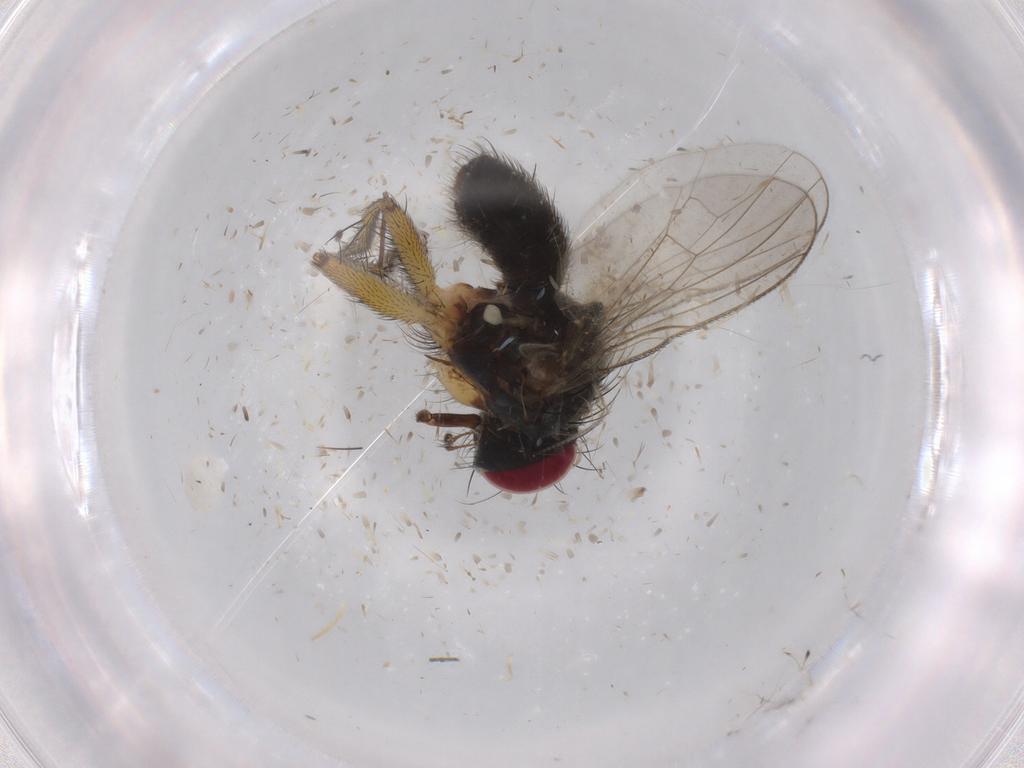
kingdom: Animalia
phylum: Arthropoda
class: Insecta
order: Diptera
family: Muscidae
